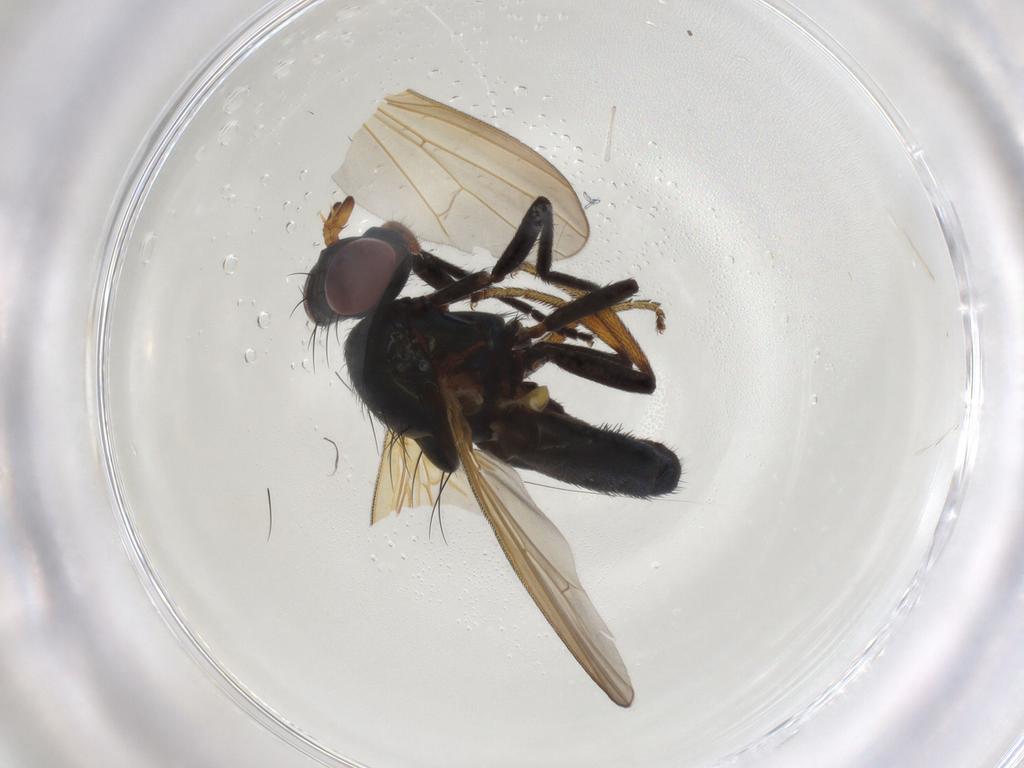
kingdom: Animalia
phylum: Arthropoda
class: Insecta
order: Diptera
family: Lauxaniidae
